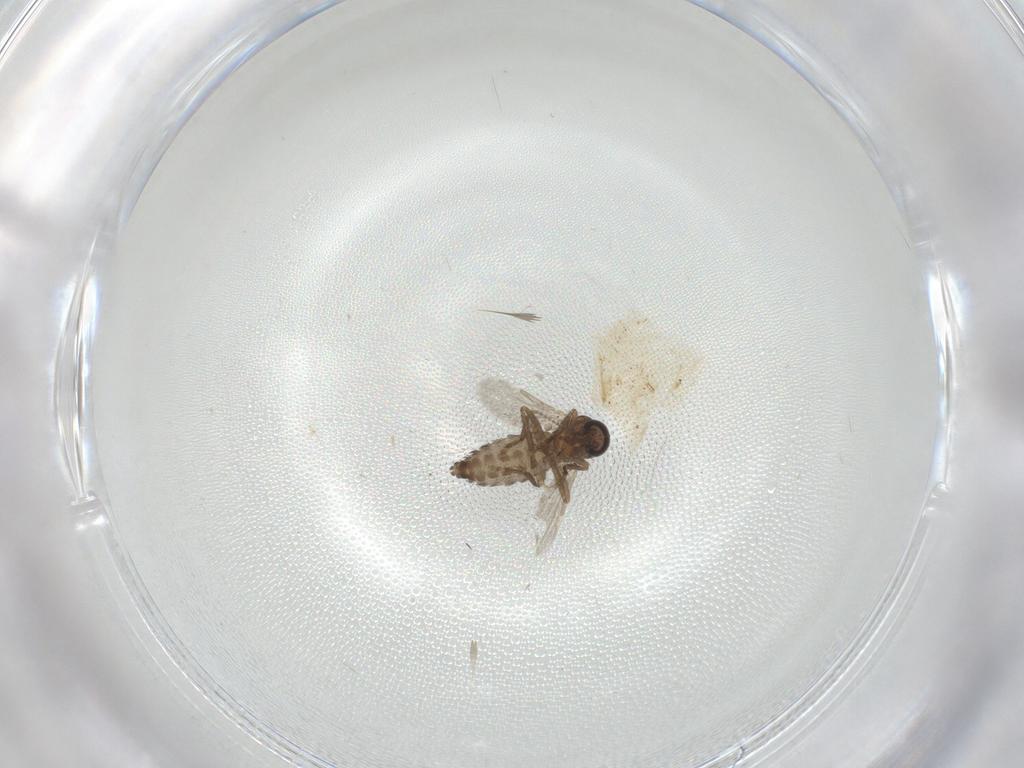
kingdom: Animalia
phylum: Arthropoda
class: Insecta
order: Diptera
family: Ceratopogonidae
